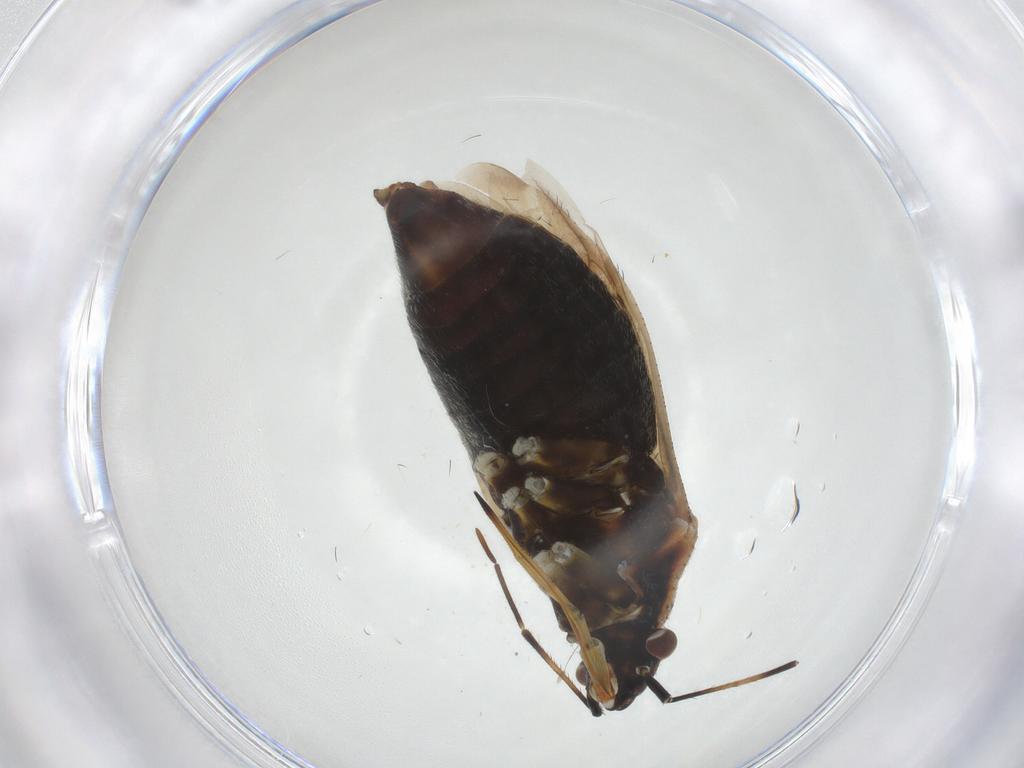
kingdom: Animalia
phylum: Arthropoda
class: Insecta
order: Hemiptera
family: Miridae
